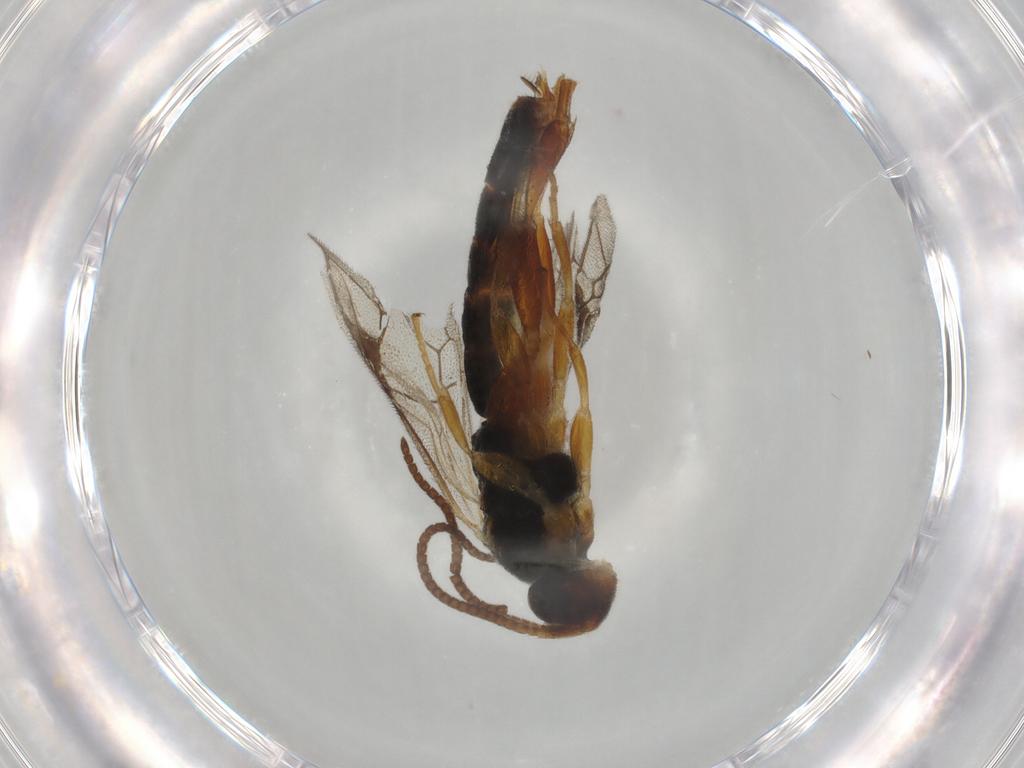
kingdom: Animalia
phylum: Arthropoda
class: Insecta
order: Hymenoptera
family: Ichneumonidae
